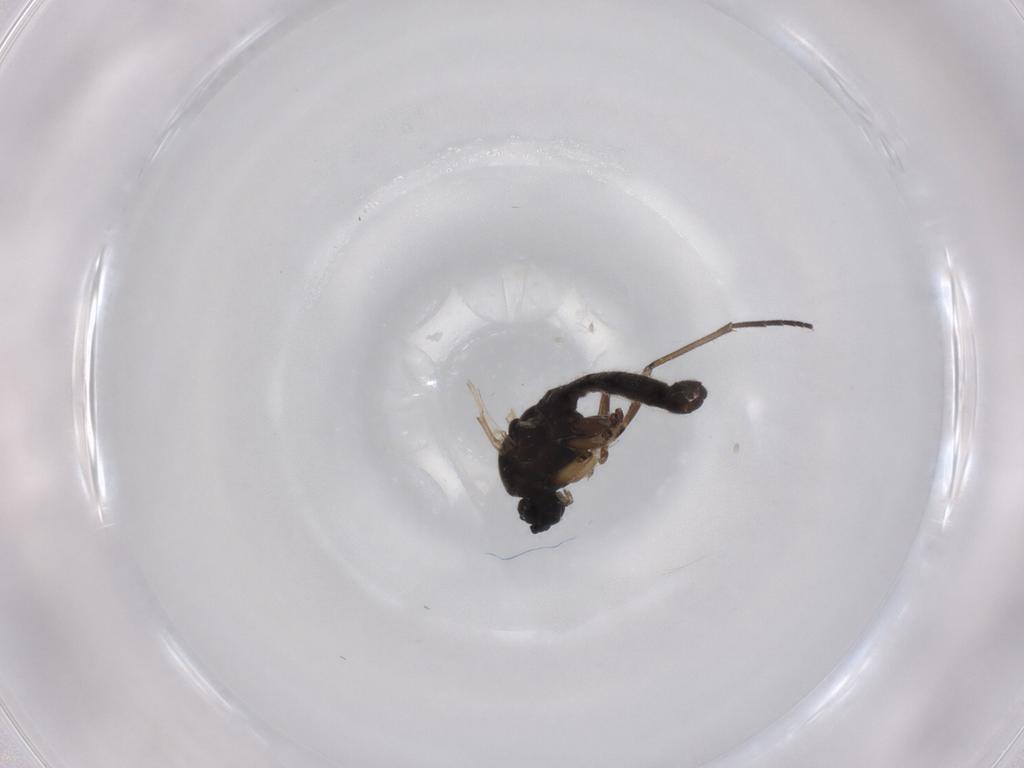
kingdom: Animalia
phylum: Arthropoda
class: Insecta
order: Diptera
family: Sciaridae
